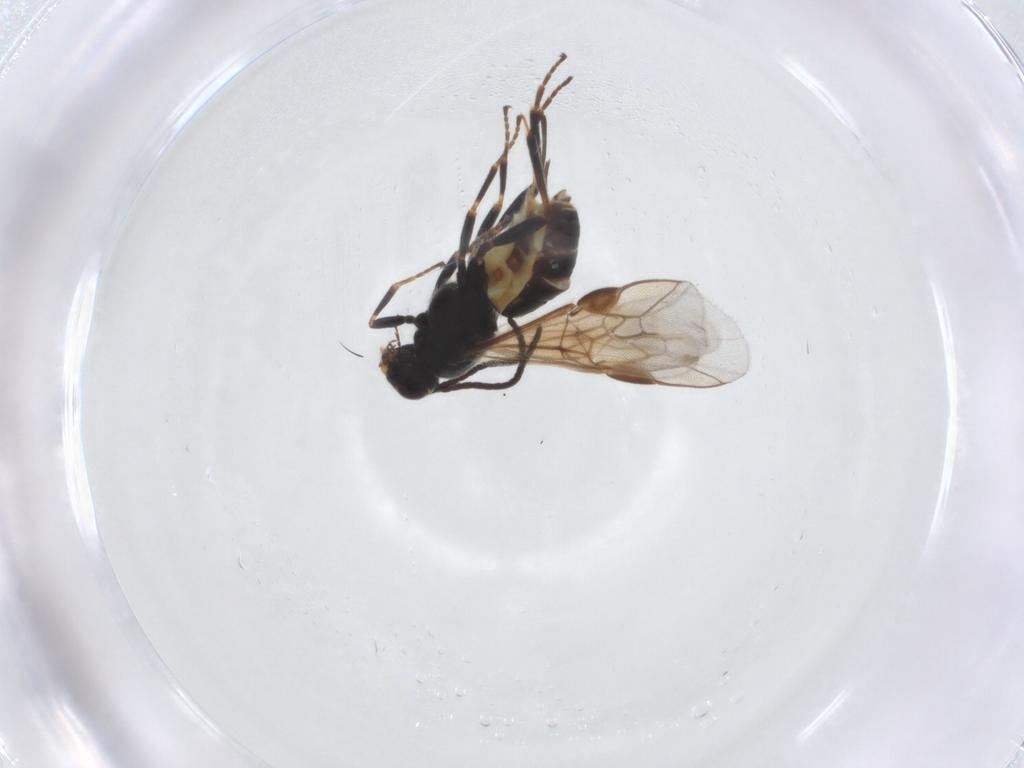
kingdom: Animalia
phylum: Arthropoda
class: Insecta
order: Hymenoptera
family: Braconidae
